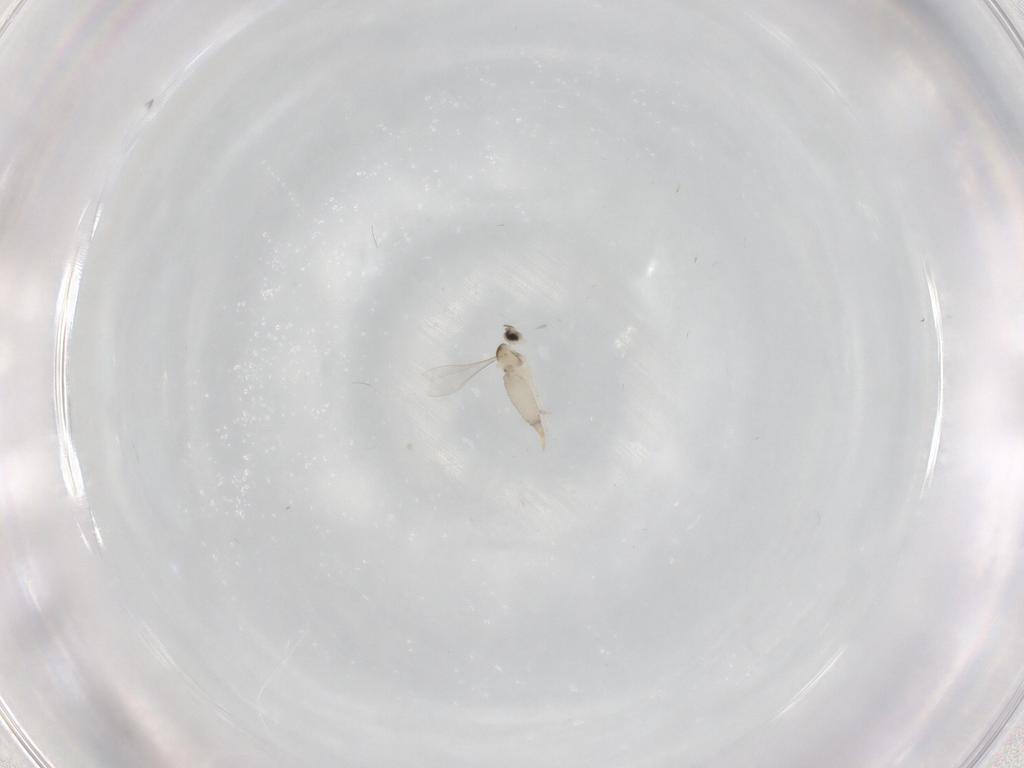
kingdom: Animalia
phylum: Arthropoda
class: Insecta
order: Diptera
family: Cecidomyiidae
